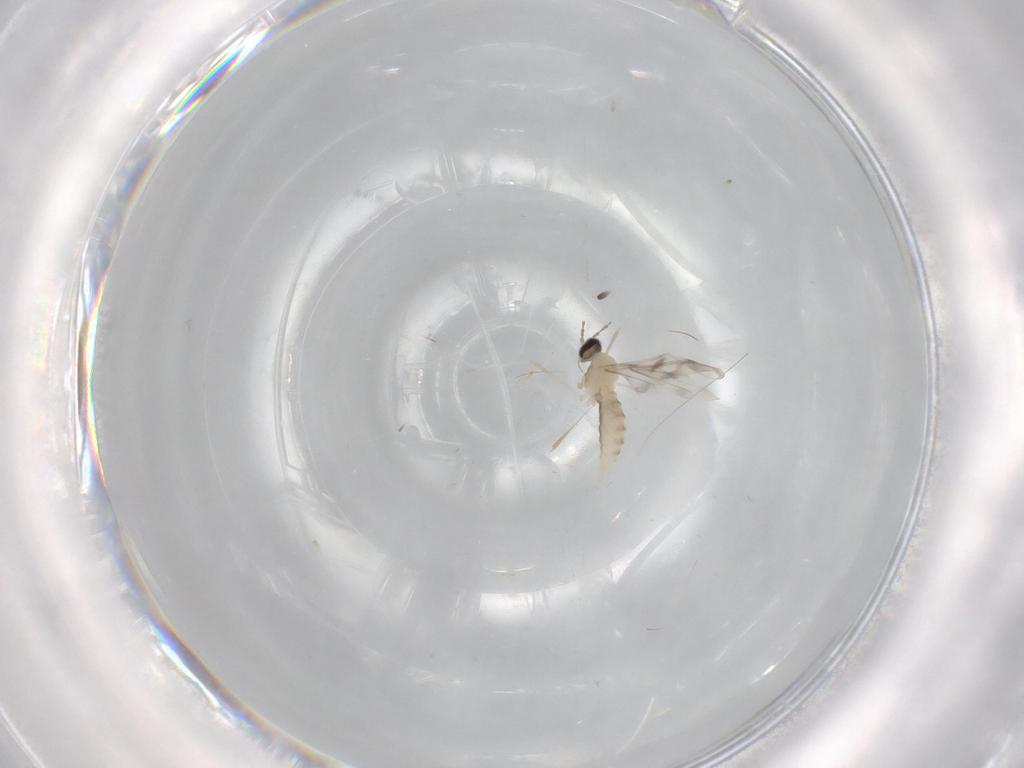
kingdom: Animalia
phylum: Arthropoda
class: Insecta
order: Diptera
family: Cecidomyiidae
